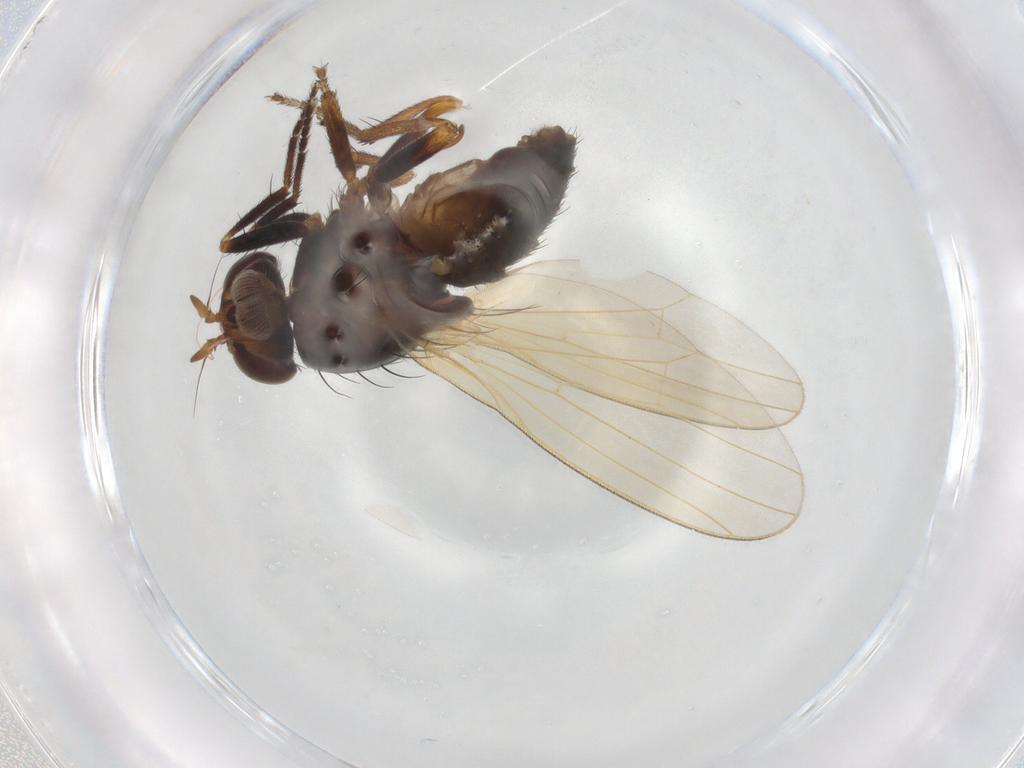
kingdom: Animalia
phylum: Arthropoda
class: Insecta
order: Diptera
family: Lauxaniidae
